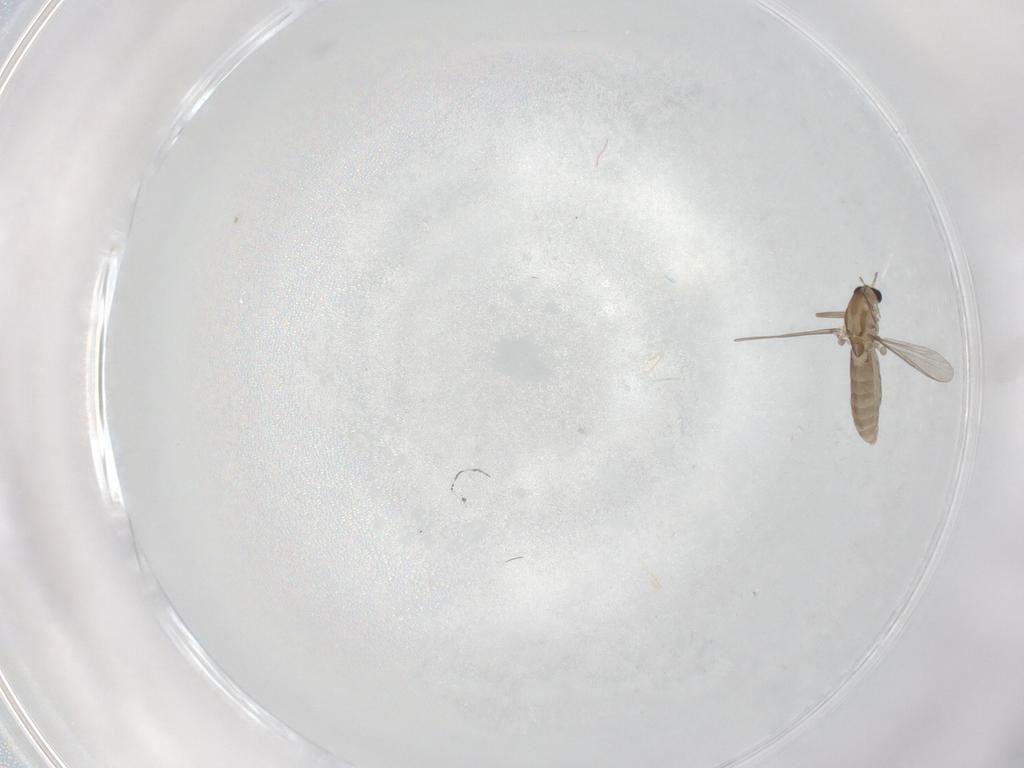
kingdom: Animalia
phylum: Arthropoda
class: Insecta
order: Diptera
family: Chironomidae
